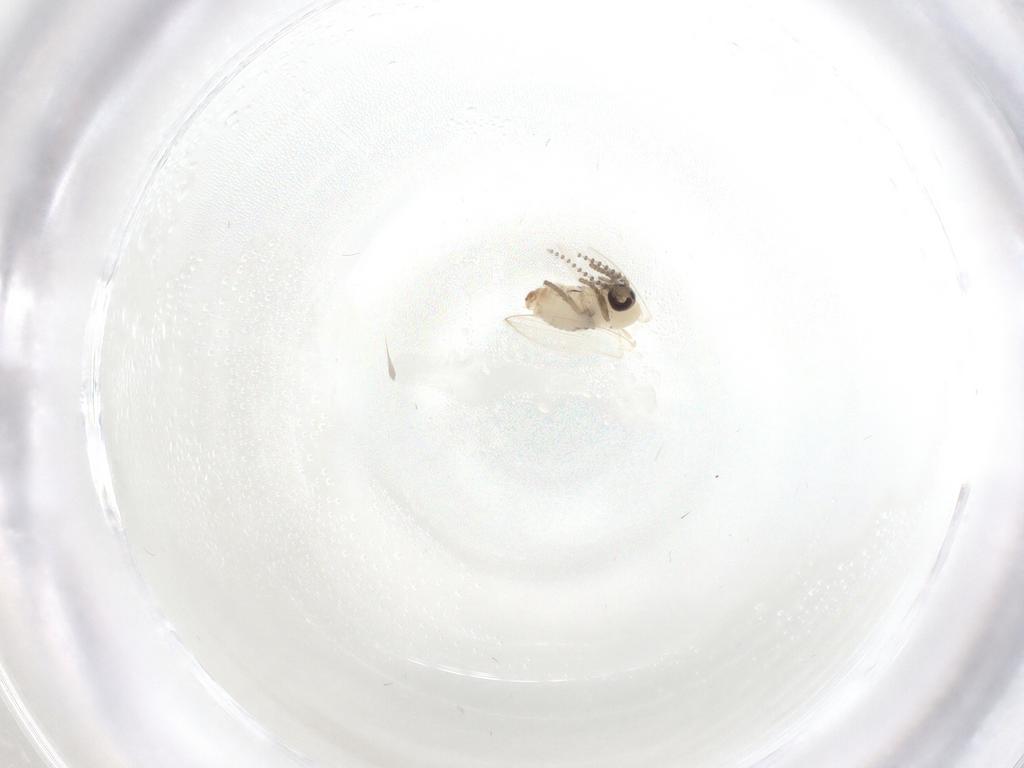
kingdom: Animalia
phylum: Arthropoda
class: Insecta
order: Diptera
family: Psychodidae
